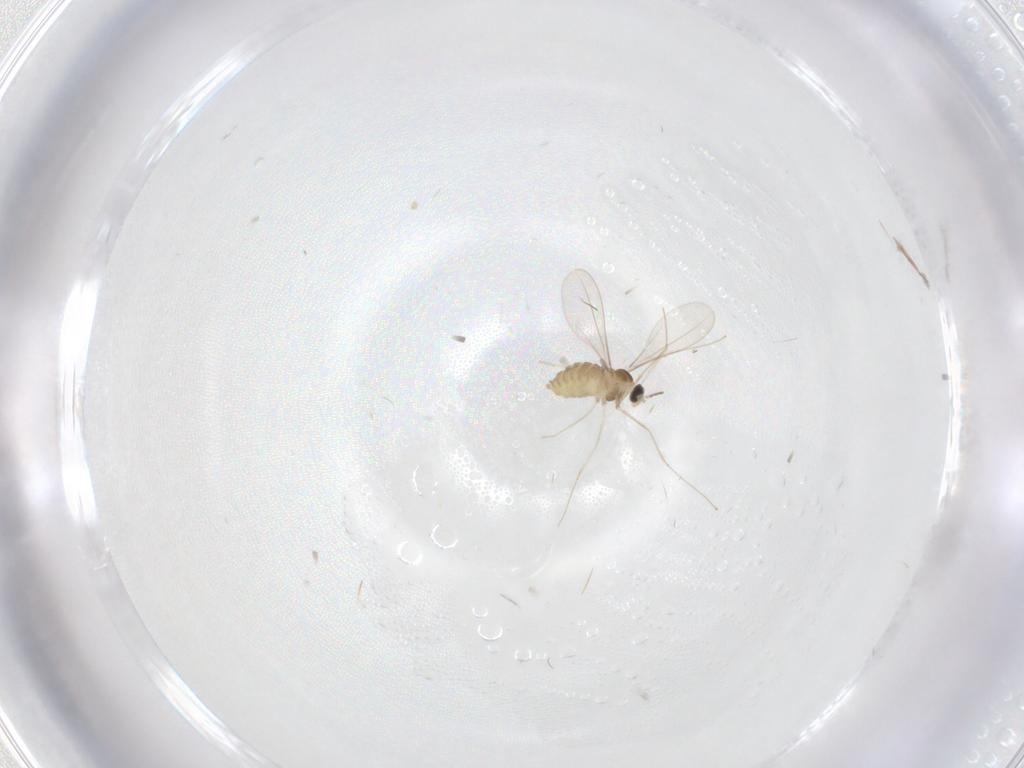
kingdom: Animalia
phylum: Arthropoda
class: Insecta
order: Diptera
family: Cecidomyiidae
